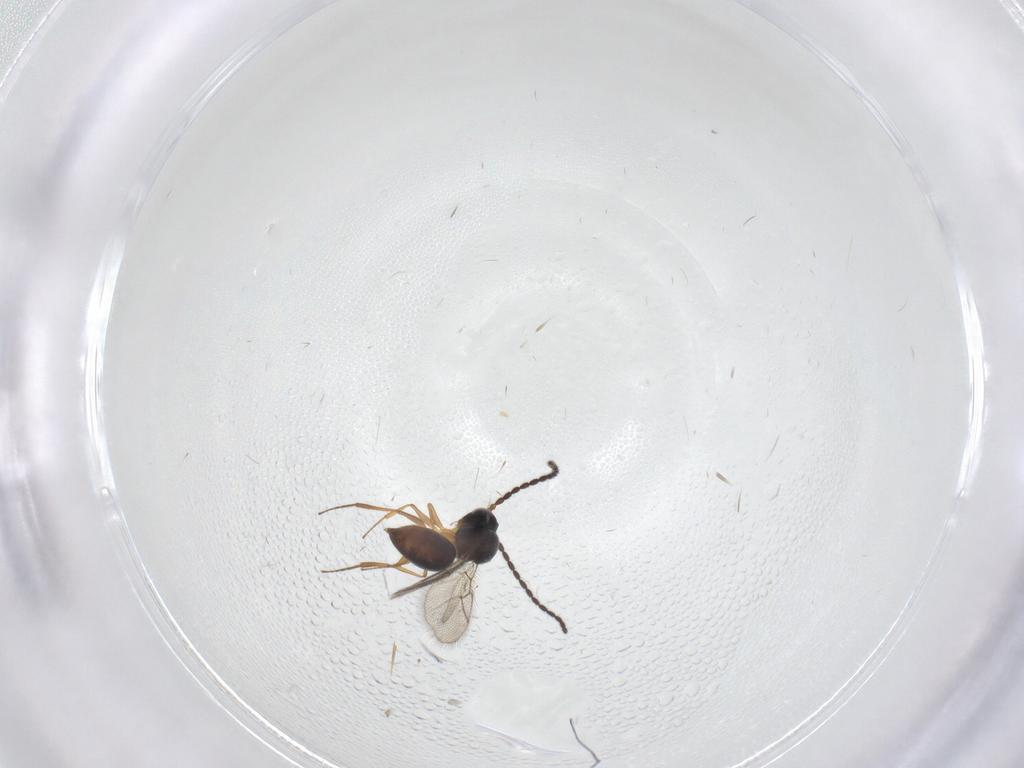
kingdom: Animalia
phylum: Arthropoda
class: Insecta
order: Hymenoptera
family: Figitidae
